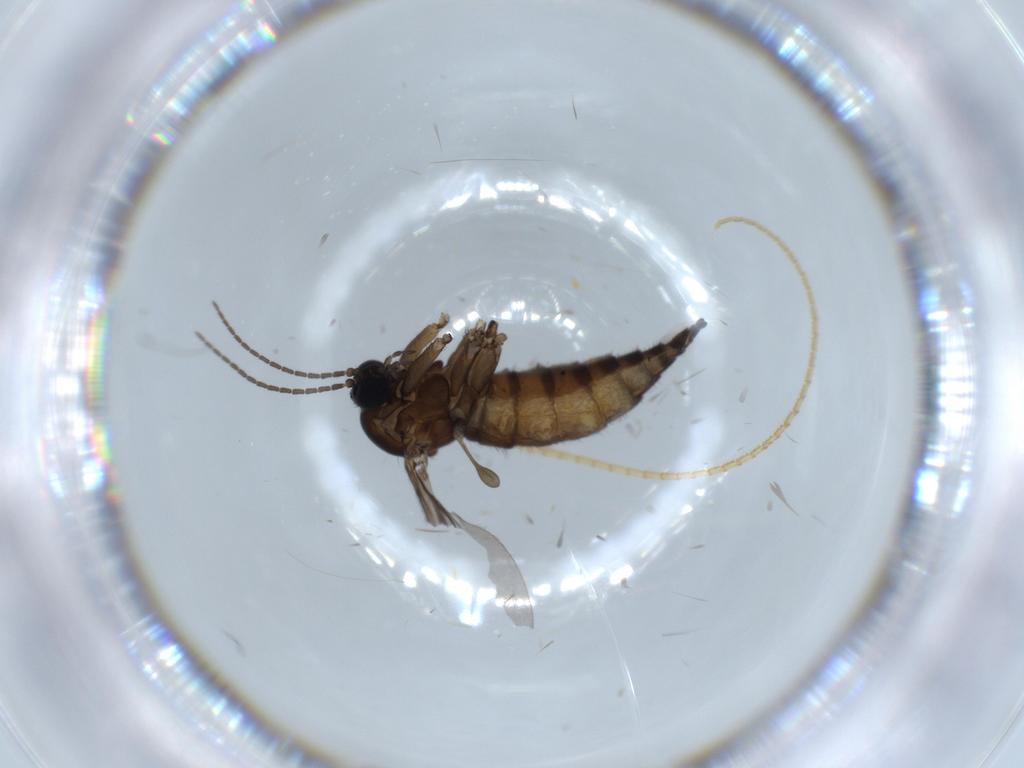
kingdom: Animalia
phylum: Arthropoda
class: Insecta
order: Diptera
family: Sciaridae
